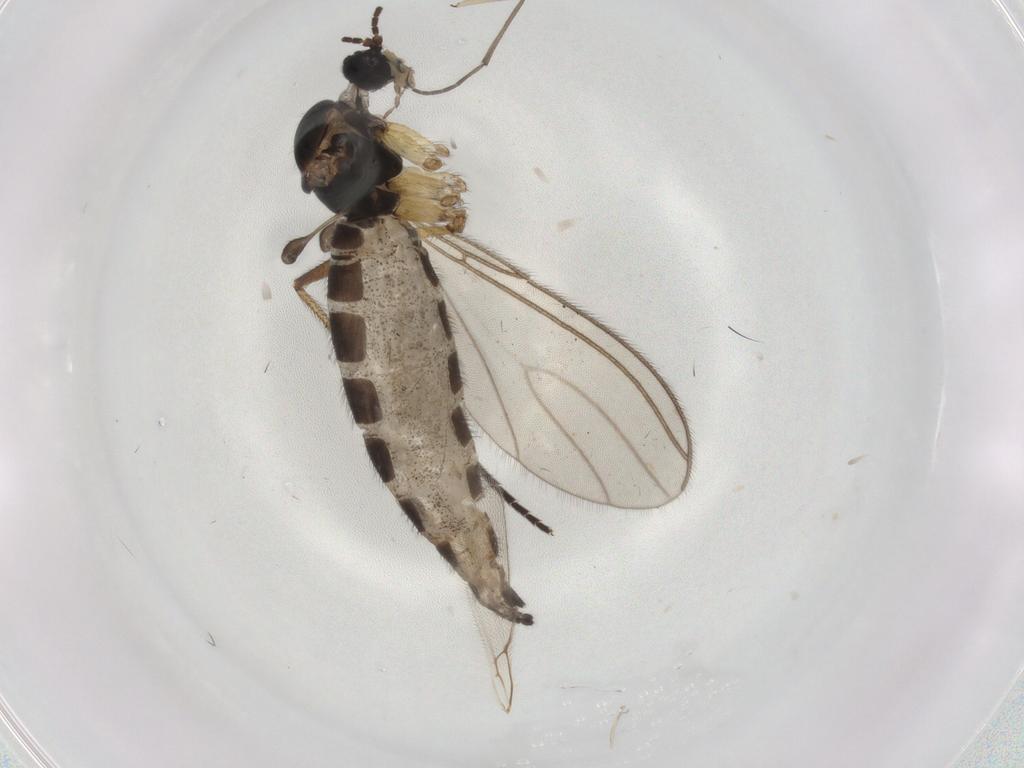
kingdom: Animalia
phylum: Arthropoda
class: Insecta
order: Diptera
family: Sciaridae
